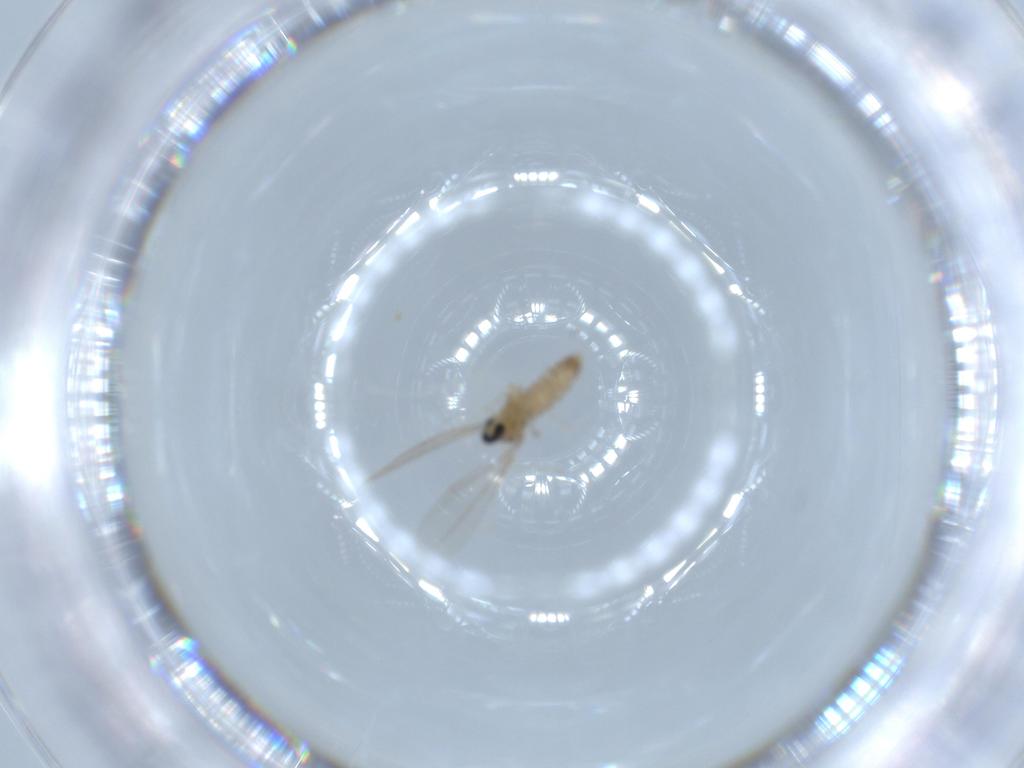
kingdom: Animalia
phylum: Arthropoda
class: Insecta
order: Diptera
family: Cecidomyiidae
